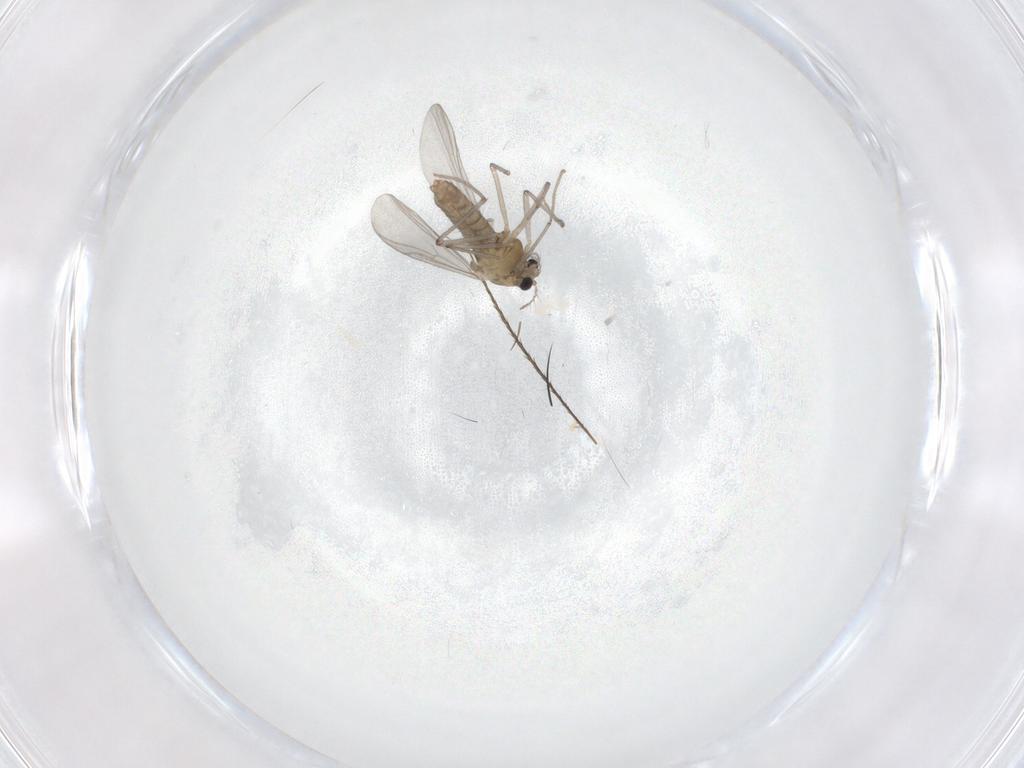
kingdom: Animalia
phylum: Arthropoda
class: Insecta
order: Diptera
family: Chironomidae
